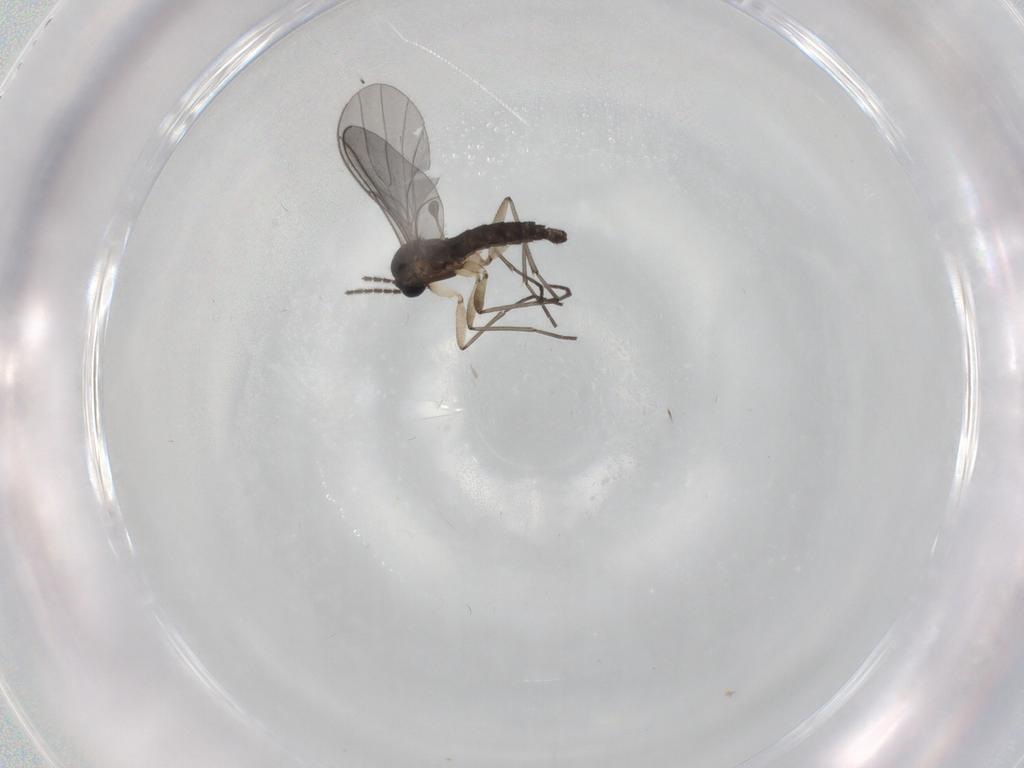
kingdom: Animalia
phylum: Arthropoda
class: Insecta
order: Diptera
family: Sciaridae
